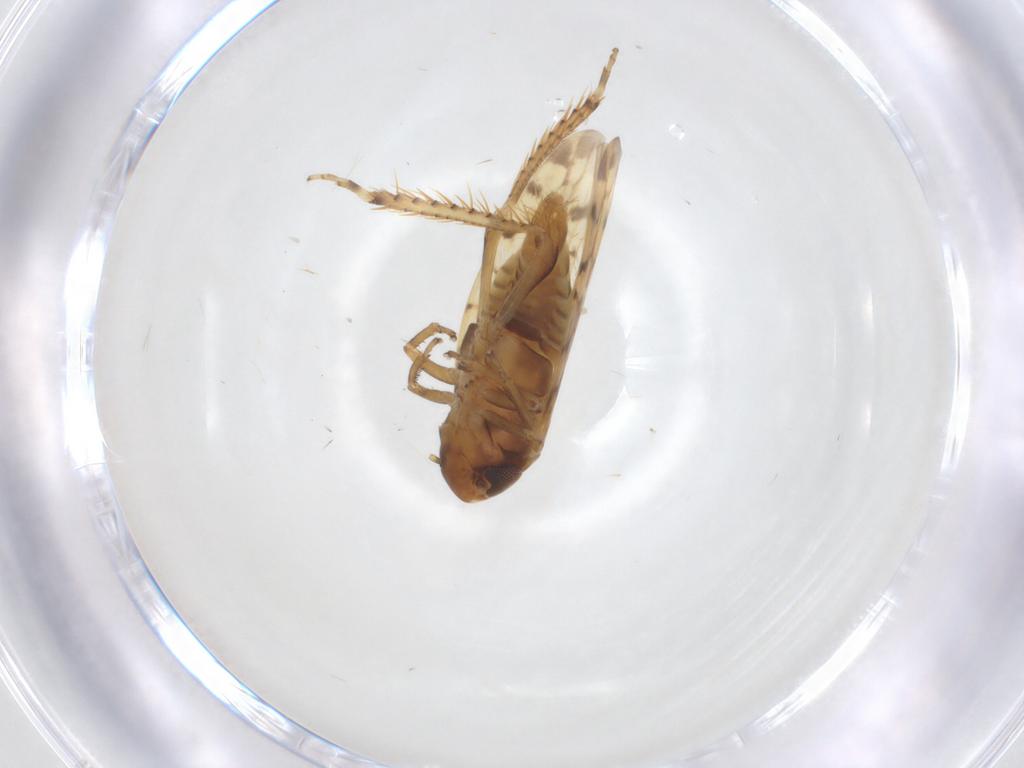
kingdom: Animalia
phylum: Arthropoda
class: Insecta
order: Hemiptera
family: Cicadellidae
